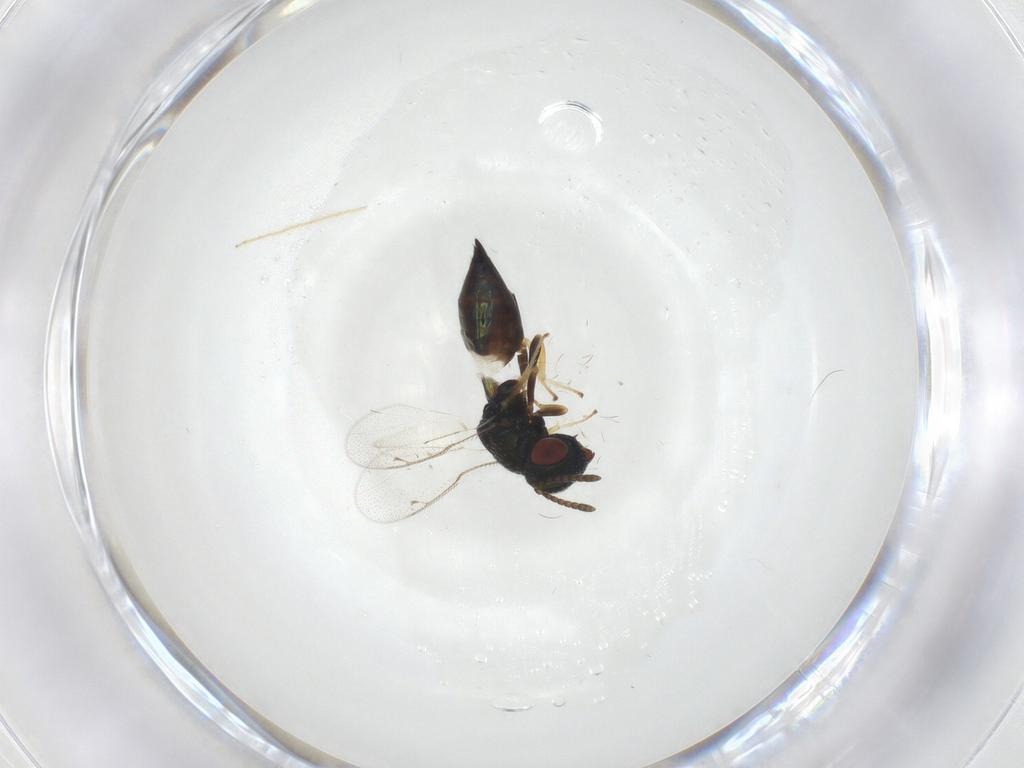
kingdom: Animalia
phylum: Arthropoda
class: Insecta
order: Hymenoptera
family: Pteromalidae
